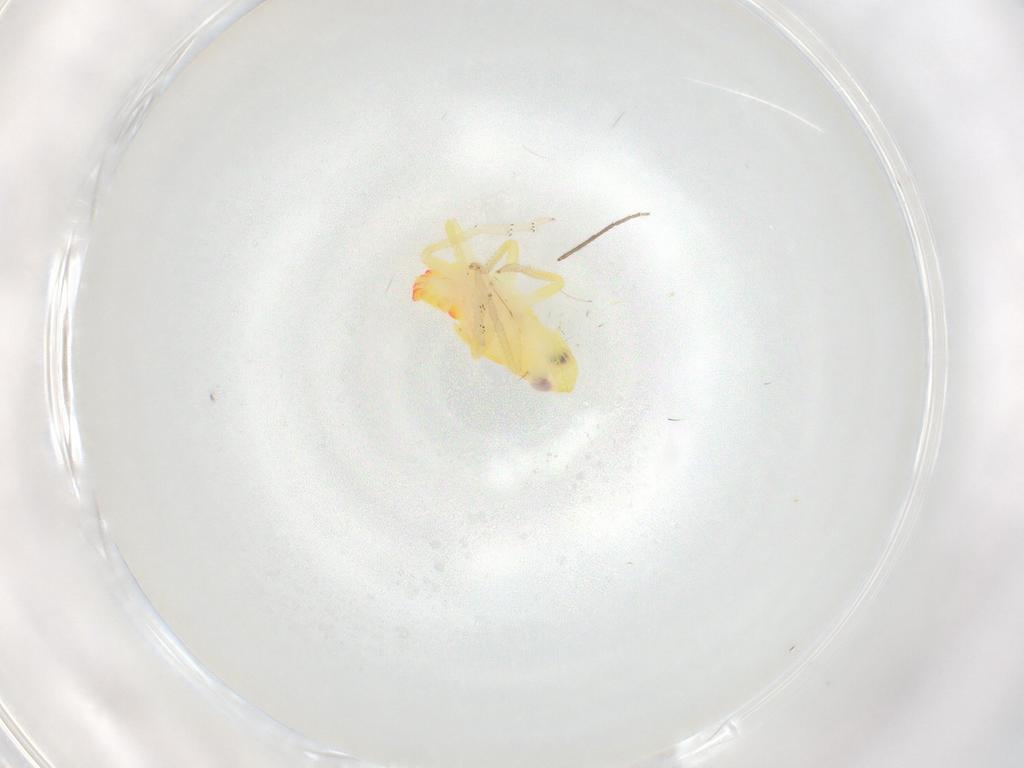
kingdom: Animalia
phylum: Arthropoda
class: Insecta
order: Hemiptera
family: Tropiduchidae
